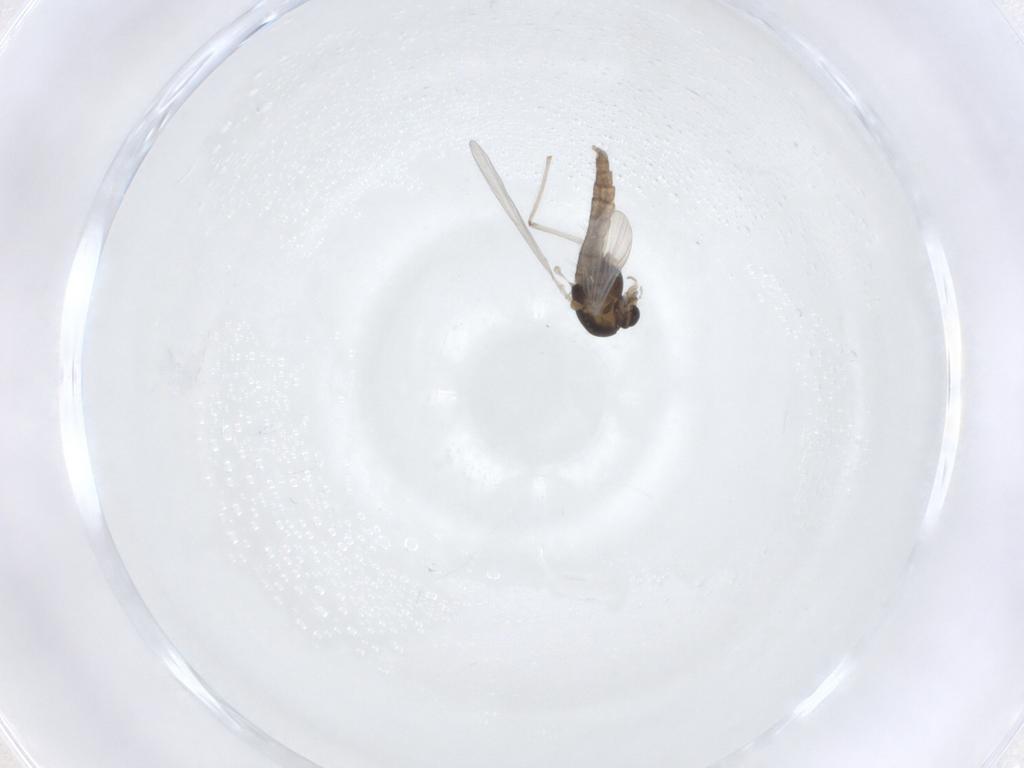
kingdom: Animalia
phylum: Arthropoda
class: Insecta
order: Diptera
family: Chironomidae
